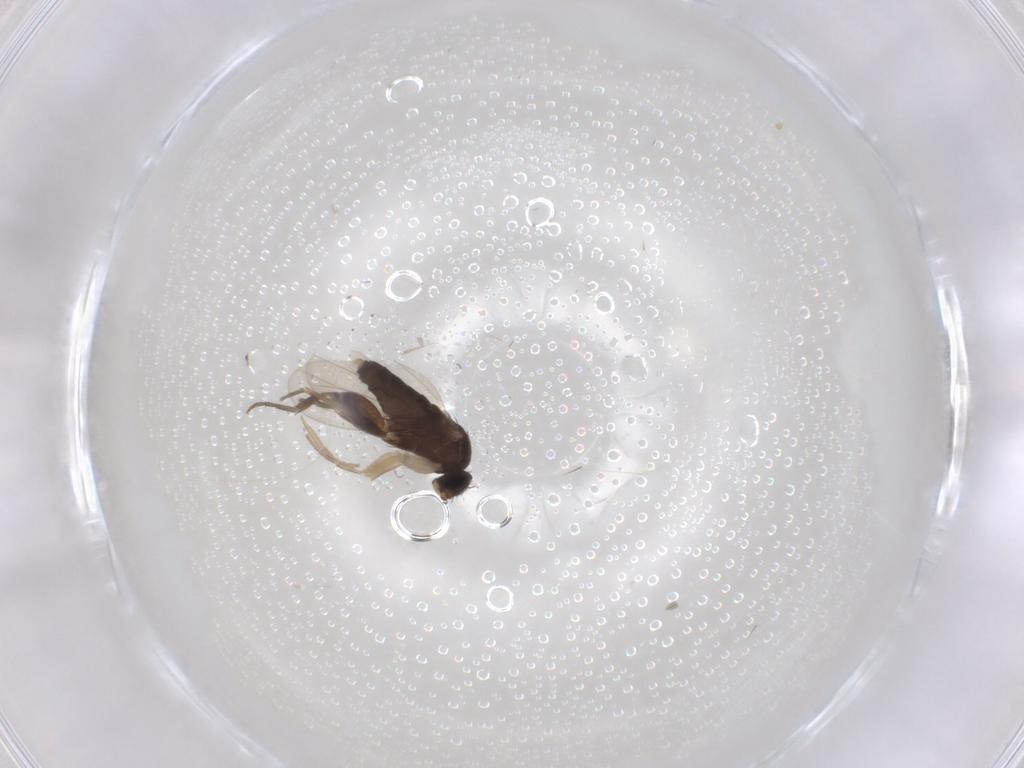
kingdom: Animalia
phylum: Arthropoda
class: Insecta
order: Diptera
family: Phoridae
